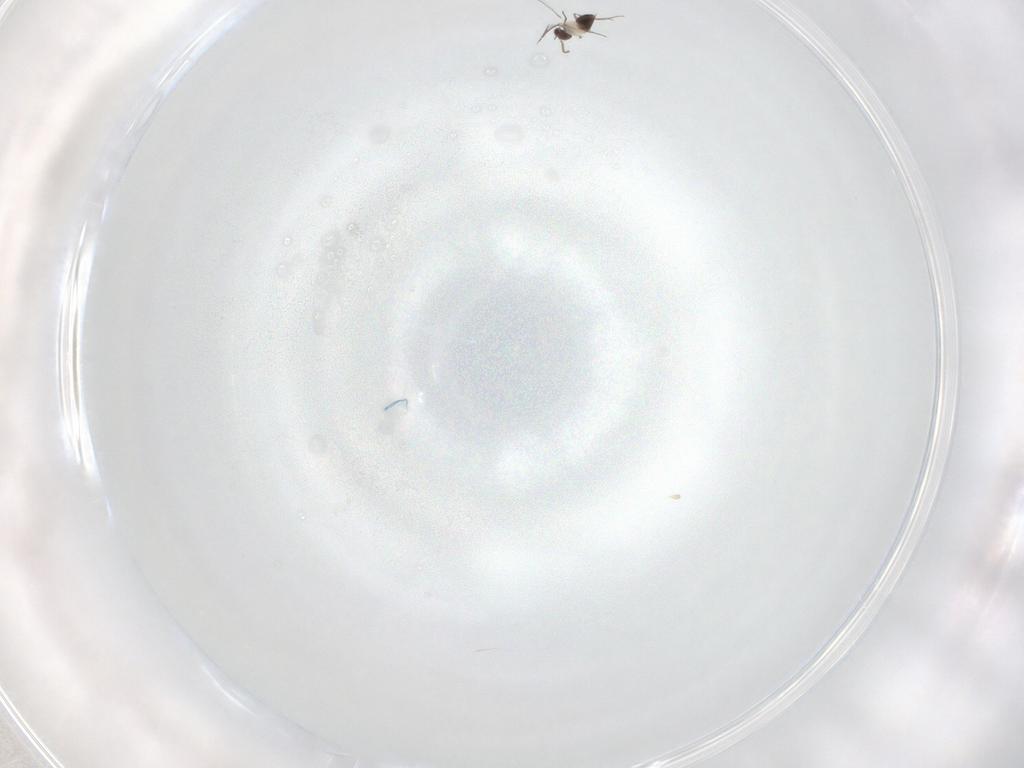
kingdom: Animalia
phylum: Arthropoda
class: Insecta
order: Hymenoptera
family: Mymaridae
